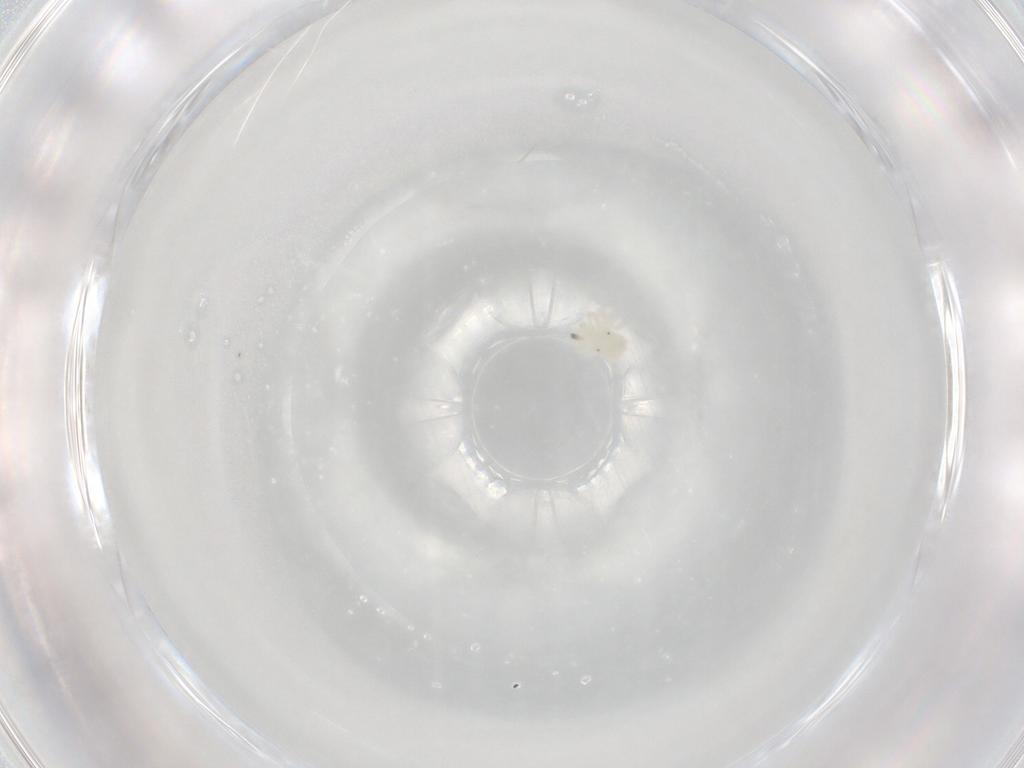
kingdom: Animalia
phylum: Arthropoda
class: Arachnida
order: Trombidiformes
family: Anystidae
